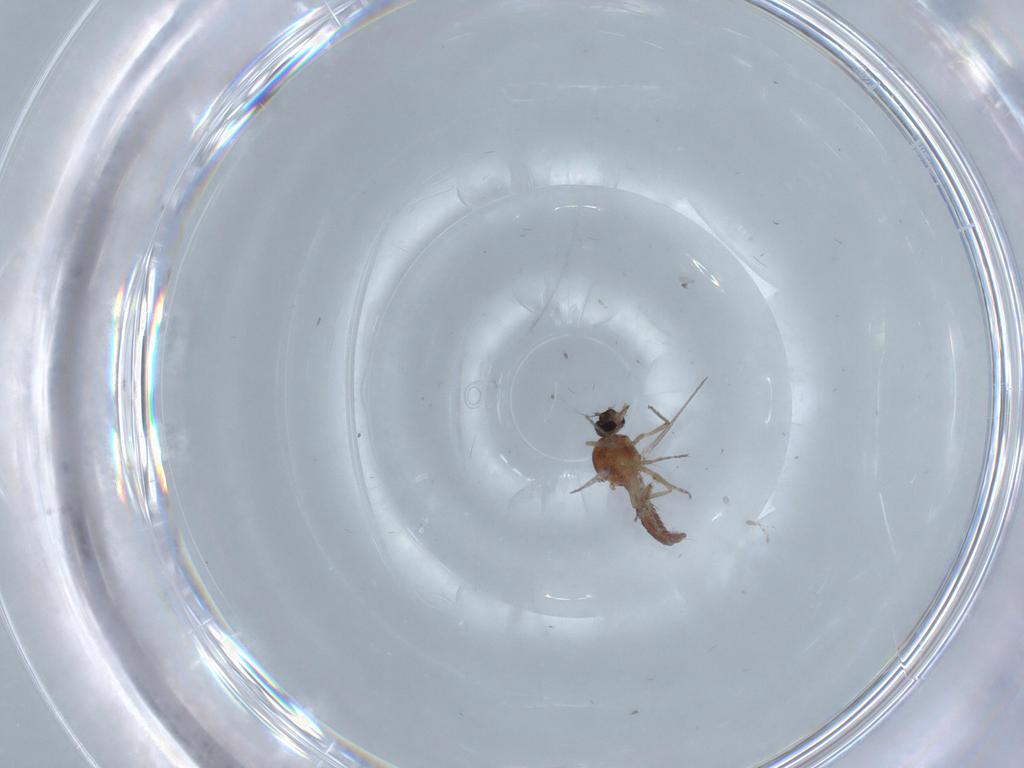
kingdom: Animalia
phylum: Arthropoda
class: Insecta
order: Diptera
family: Ceratopogonidae
